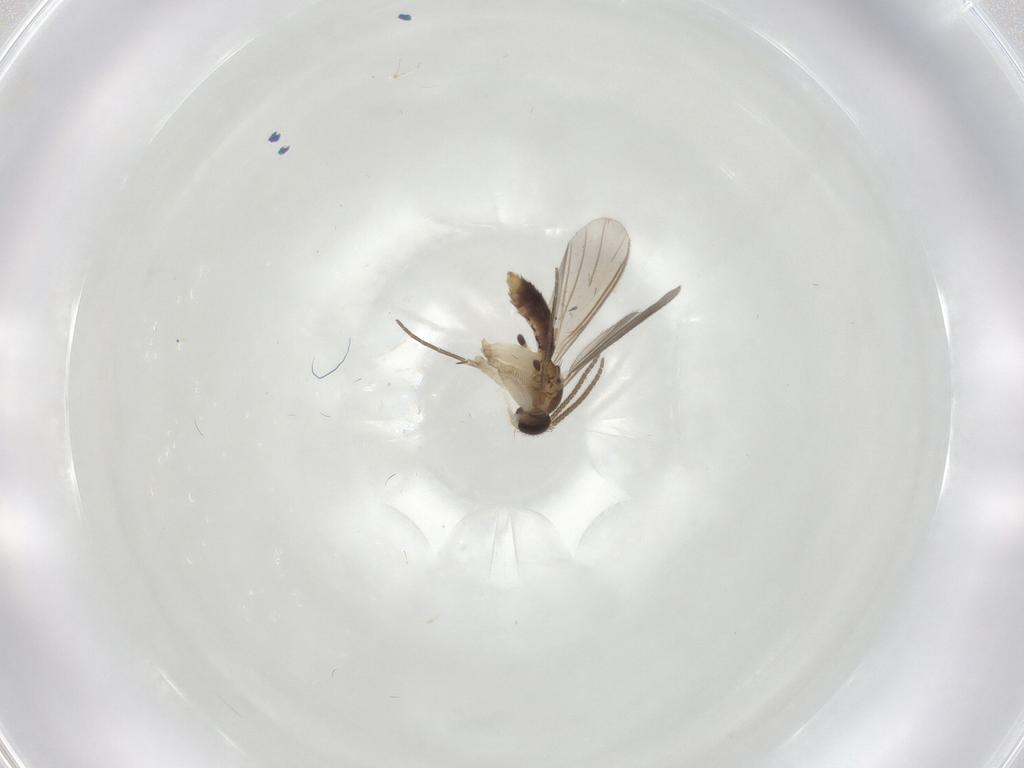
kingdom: Animalia
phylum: Arthropoda
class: Insecta
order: Diptera
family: Mycetophilidae
